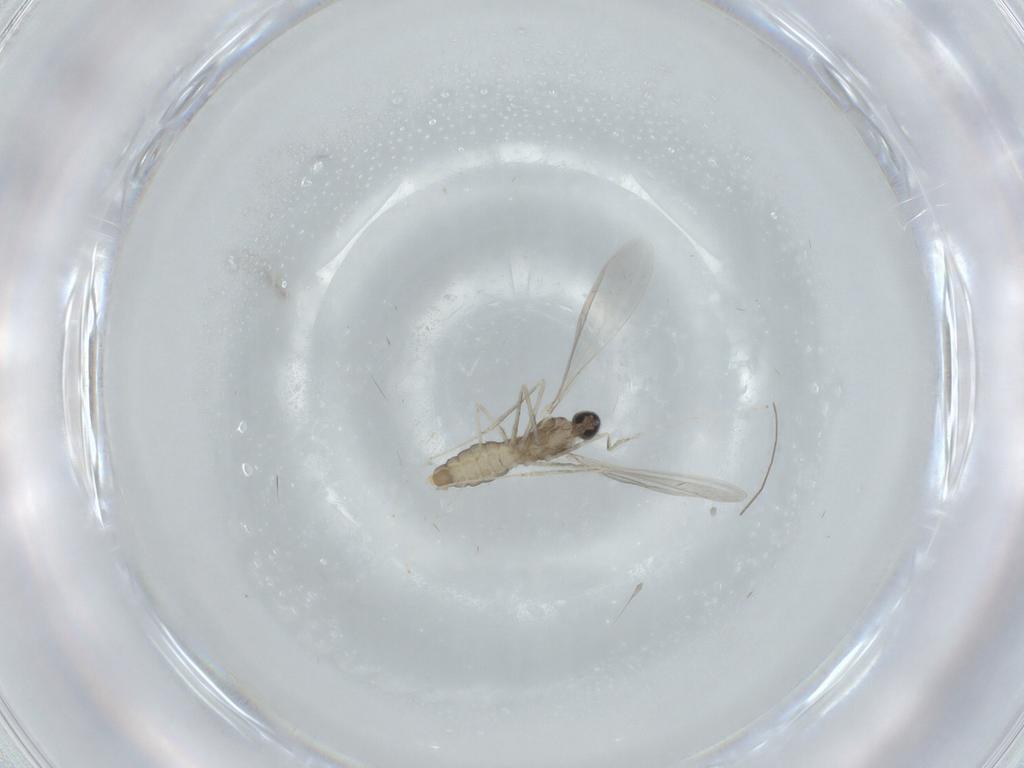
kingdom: Animalia
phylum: Arthropoda
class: Insecta
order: Diptera
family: Cecidomyiidae
